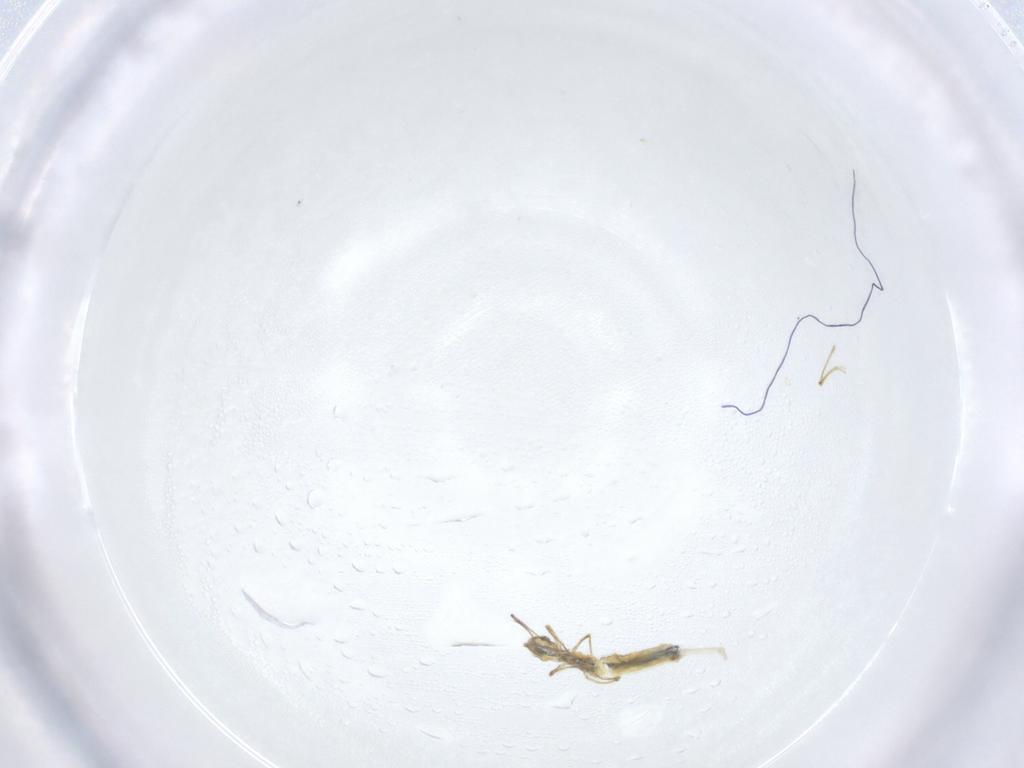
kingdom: Animalia
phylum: Arthropoda
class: Collembola
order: Entomobryomorpha
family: Entomobryidae
